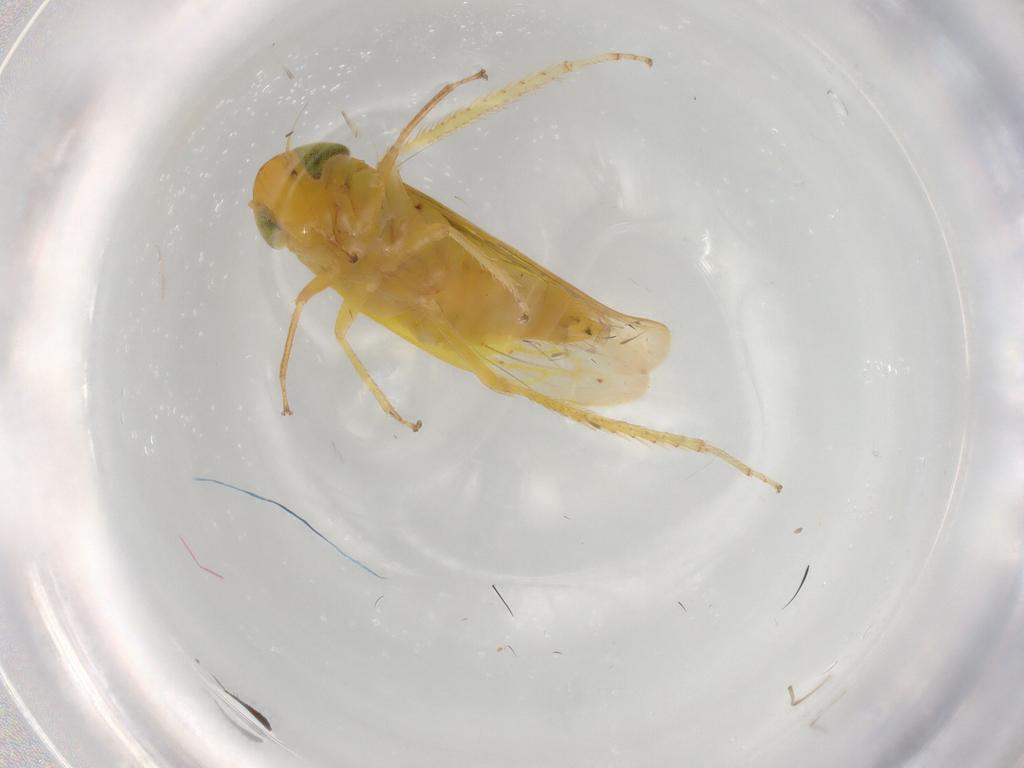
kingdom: Animalia
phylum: Arthropoda
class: Insecta
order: Hemiptera
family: Cicadellidae
